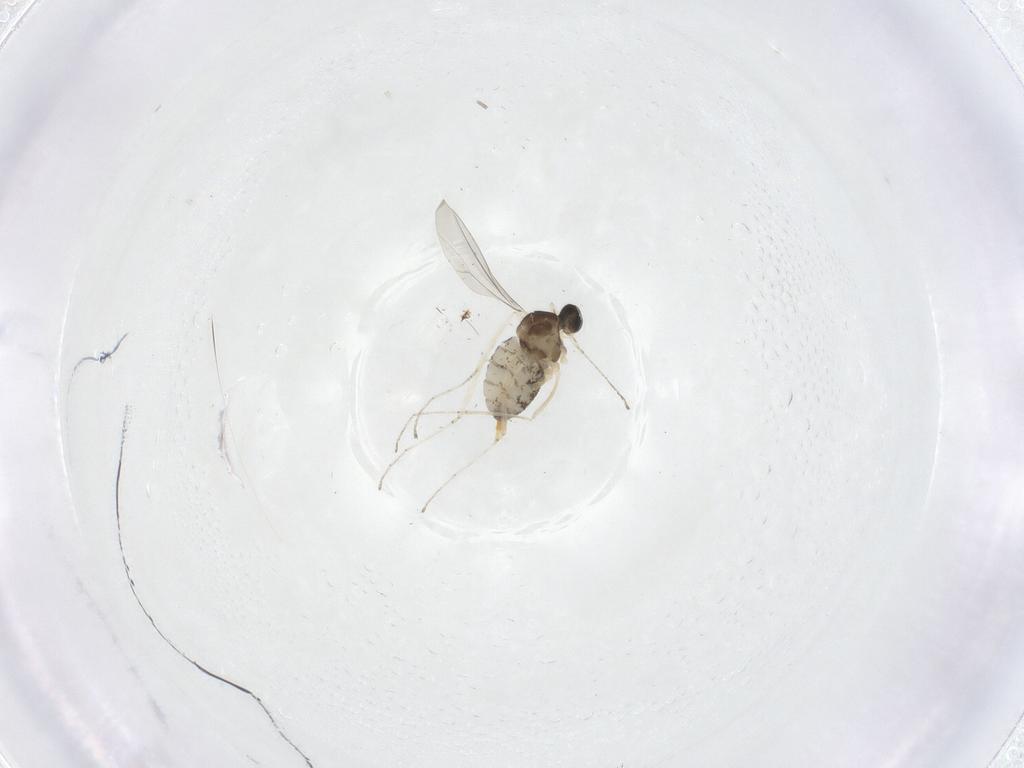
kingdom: Animalia
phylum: Arthropoda
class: Insecta
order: Diptera
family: Cecidomyiidae
